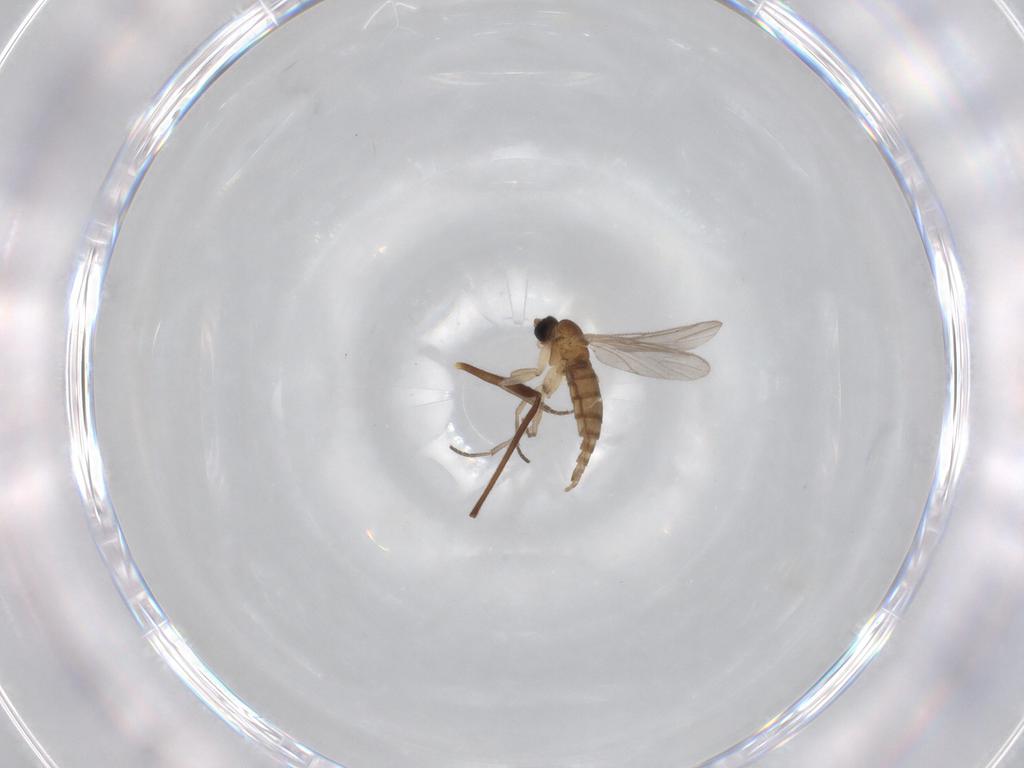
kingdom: Animalia
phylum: Arthropoda
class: Insecta
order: Diptera
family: Sciaridae
